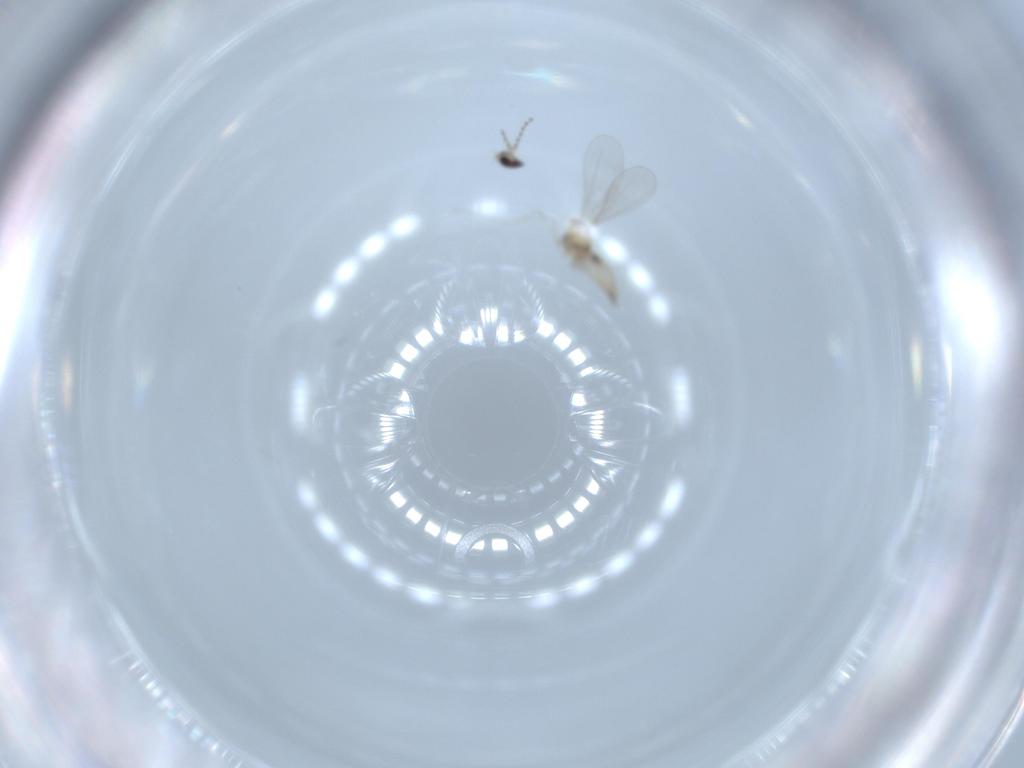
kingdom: Animalia
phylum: Arthropoda
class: Insecta
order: Diptera
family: Cecidomyiidae
